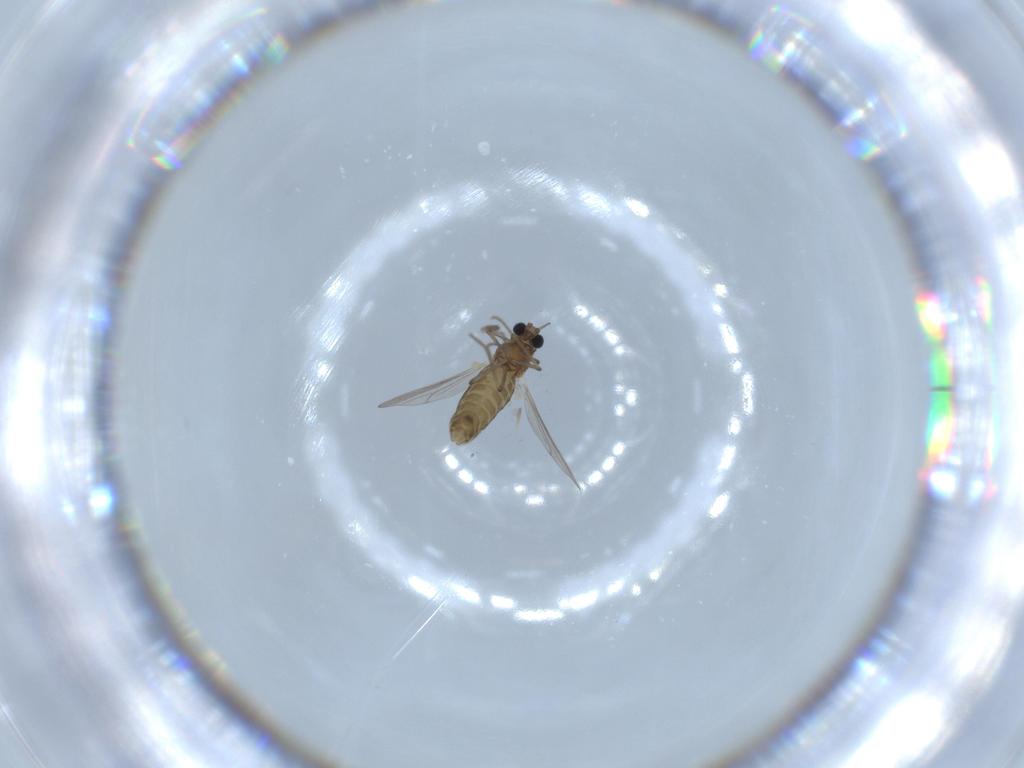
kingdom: Animalia
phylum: Arthropoda
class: Insecta
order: Diptera
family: Chironomidae
